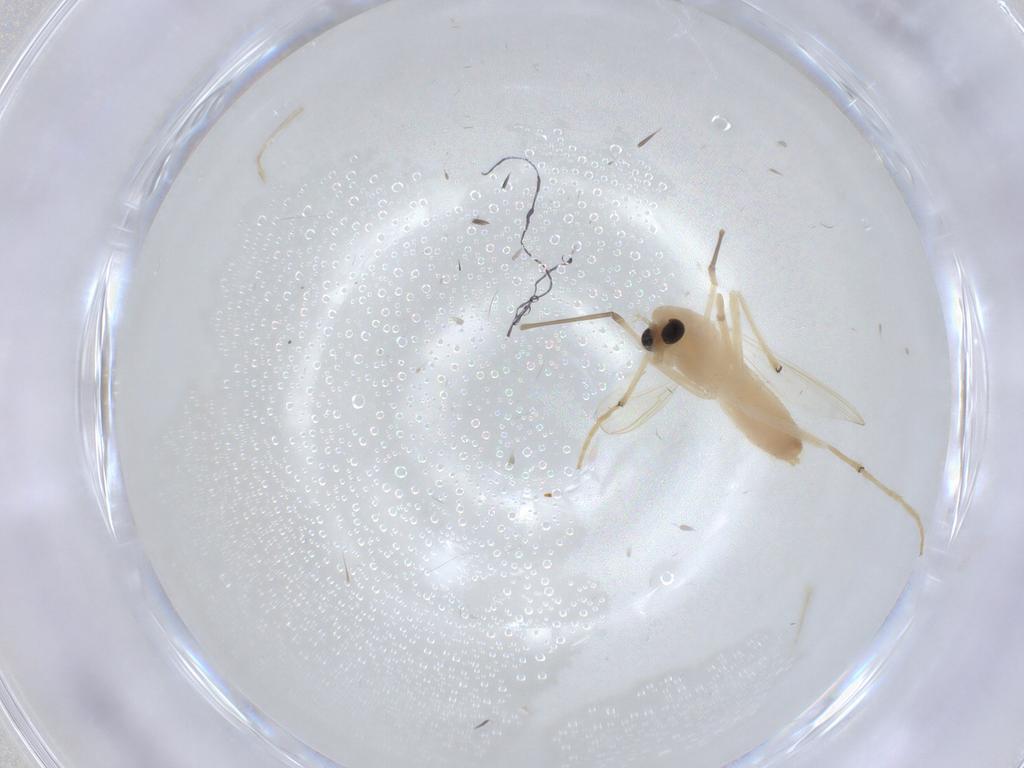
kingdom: Animalia
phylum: Arthropoda
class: Insecta
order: Diptera
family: Chironomidae
